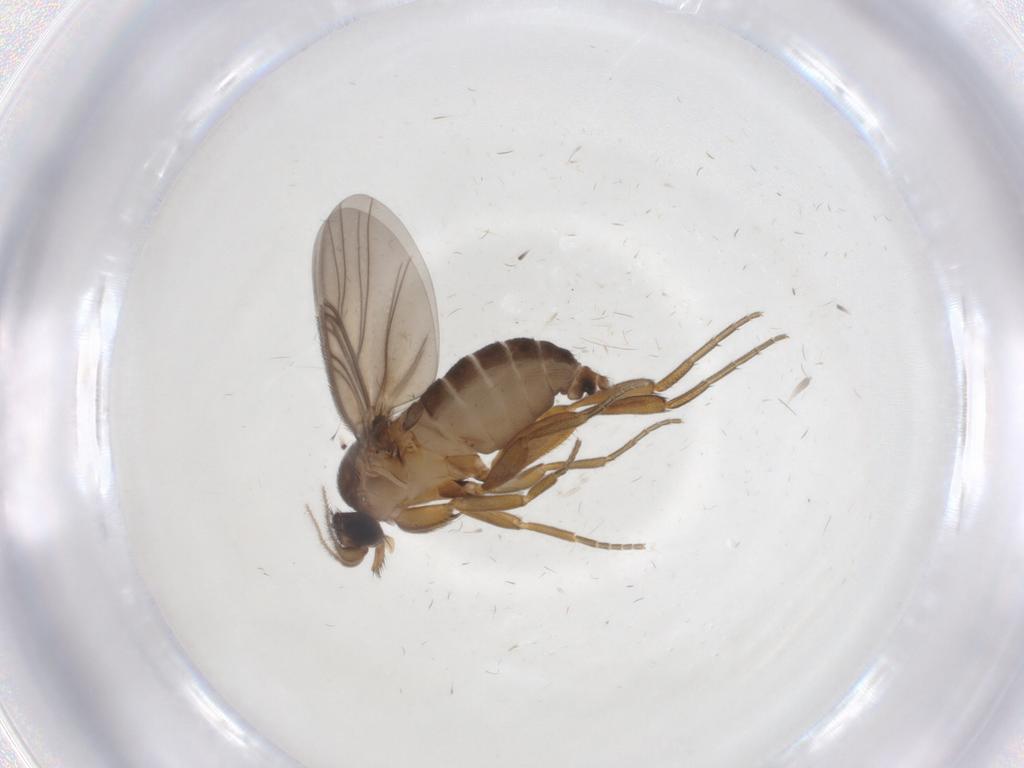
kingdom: Animalia
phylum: Arthropoda
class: Insecta
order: Diptera
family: Phoridae
